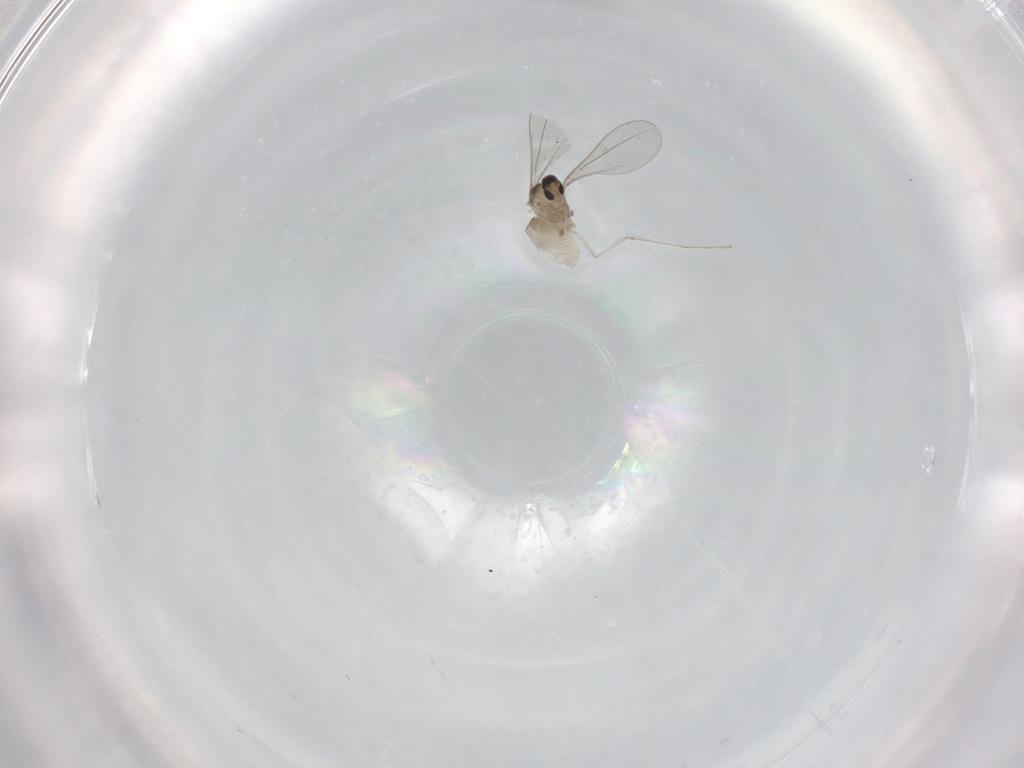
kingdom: Animalia
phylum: Arthropoda
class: Insecta
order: Diptera
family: Cecidomyiidae
